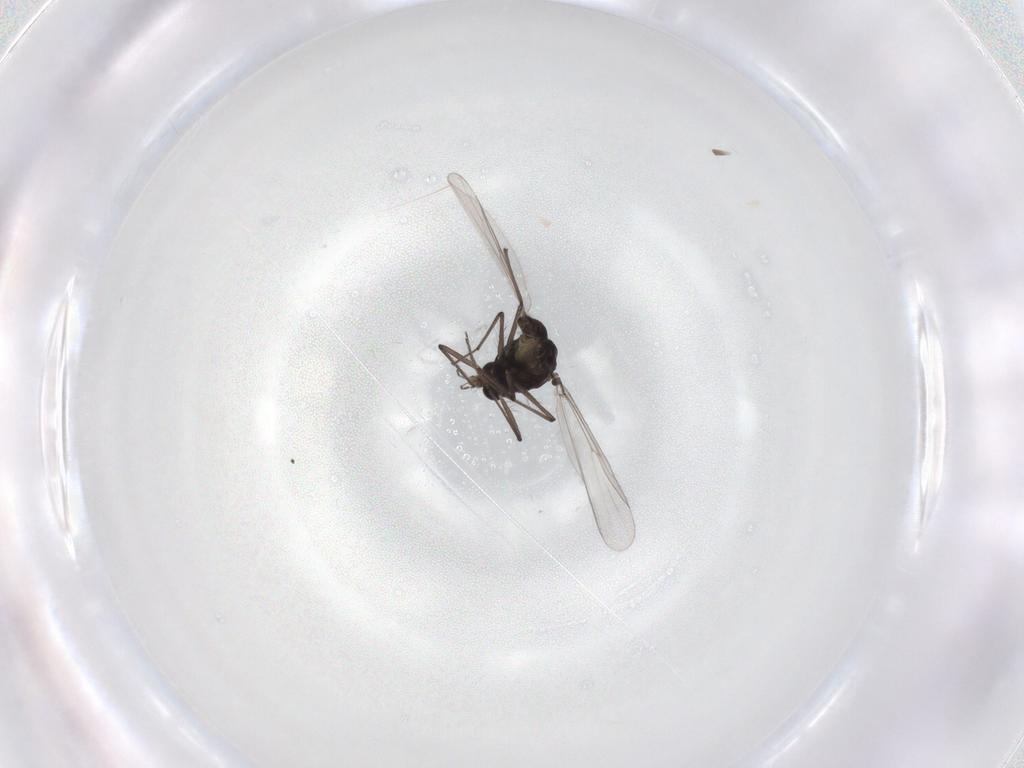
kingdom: Animalia
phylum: Arthropoda
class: Insecta
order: Diptera
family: Chironomidae
